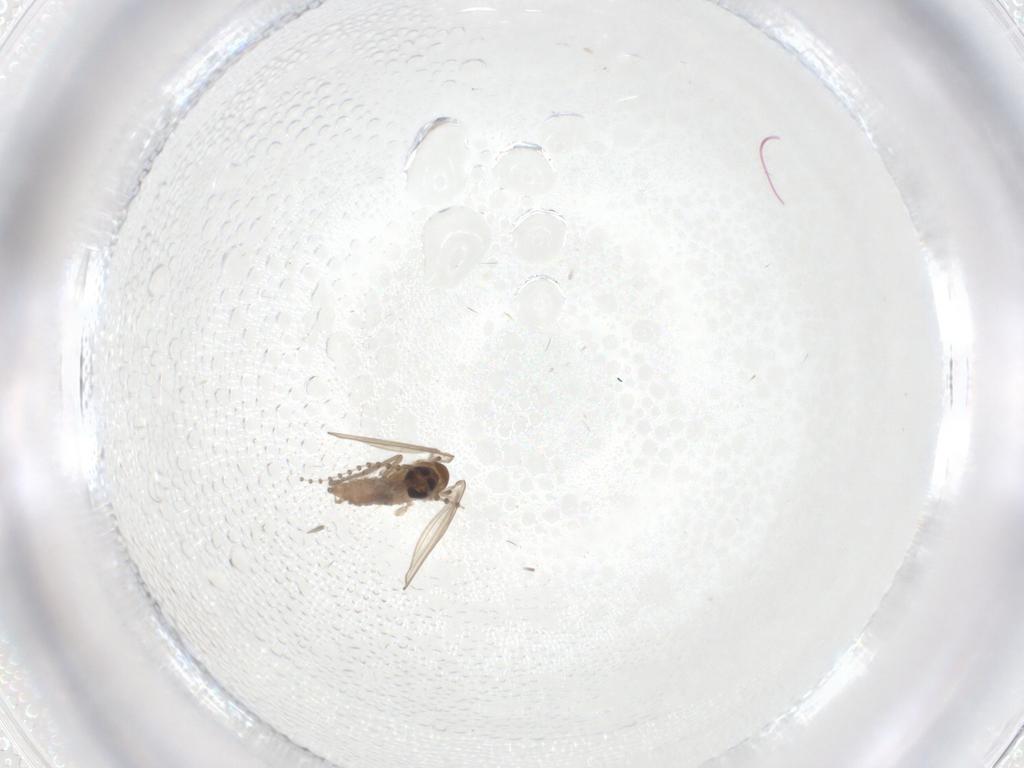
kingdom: Animalia
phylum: Arthropoda
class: Insecta
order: Diptera
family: Psychodidae
